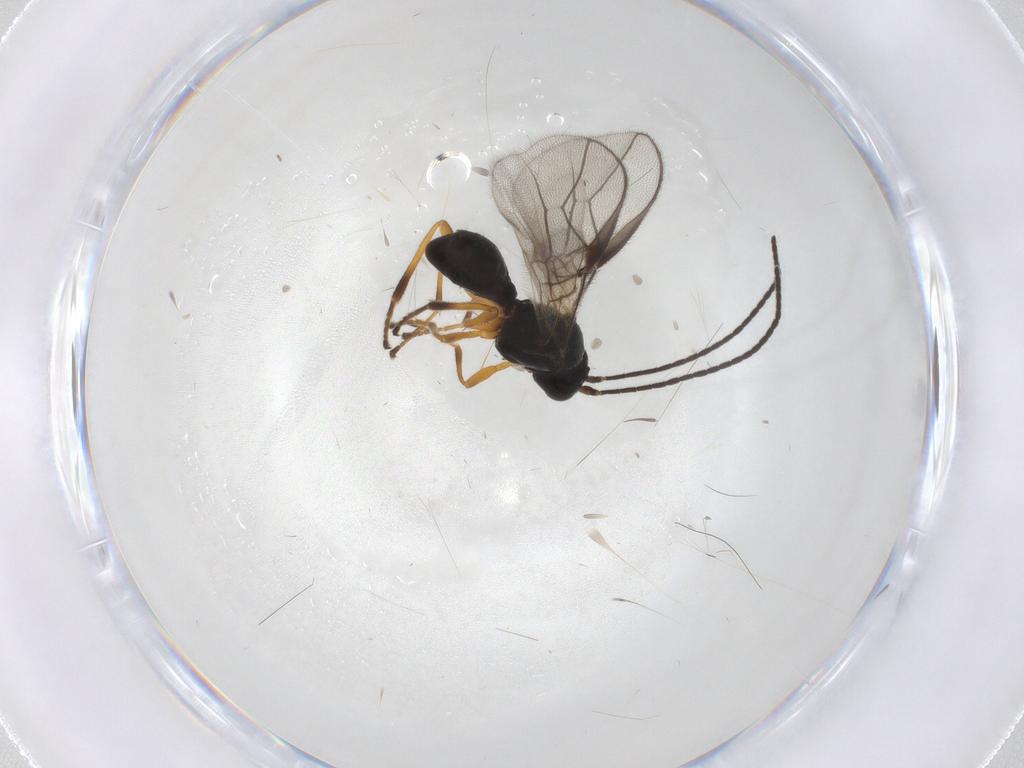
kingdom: Animalia
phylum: Arthropoda
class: Insecta
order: Hymenoptera
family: Braconidae
